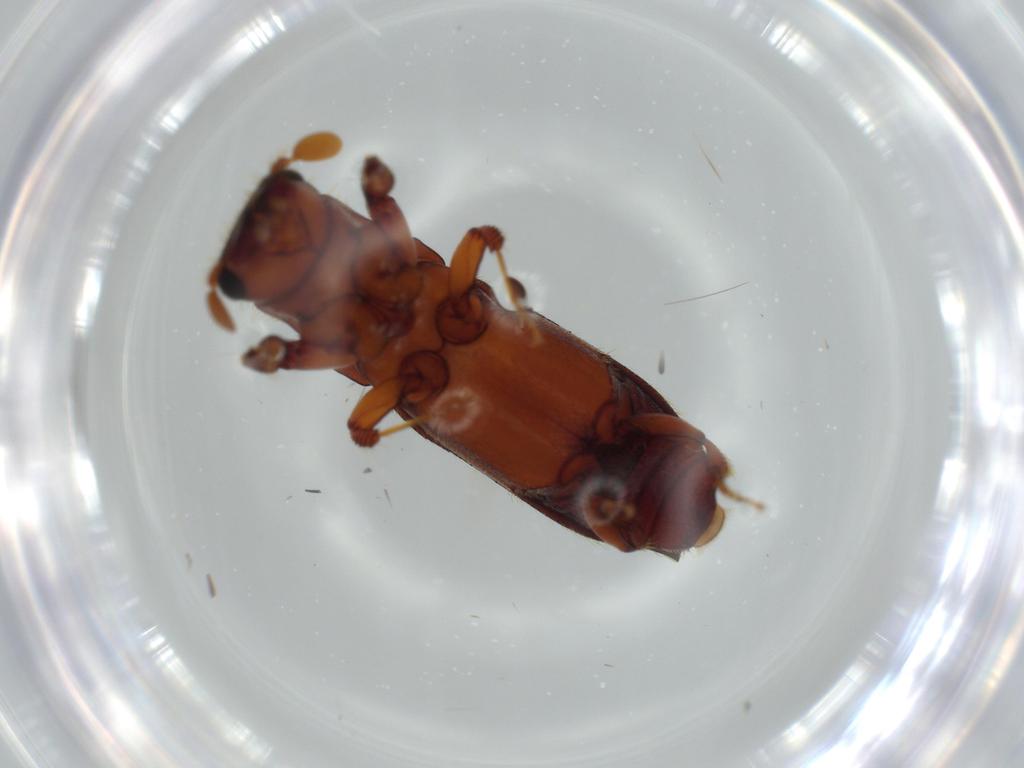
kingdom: Animalia
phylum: Arthropoda
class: Insecta
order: Coleoptera
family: Curculionidae
